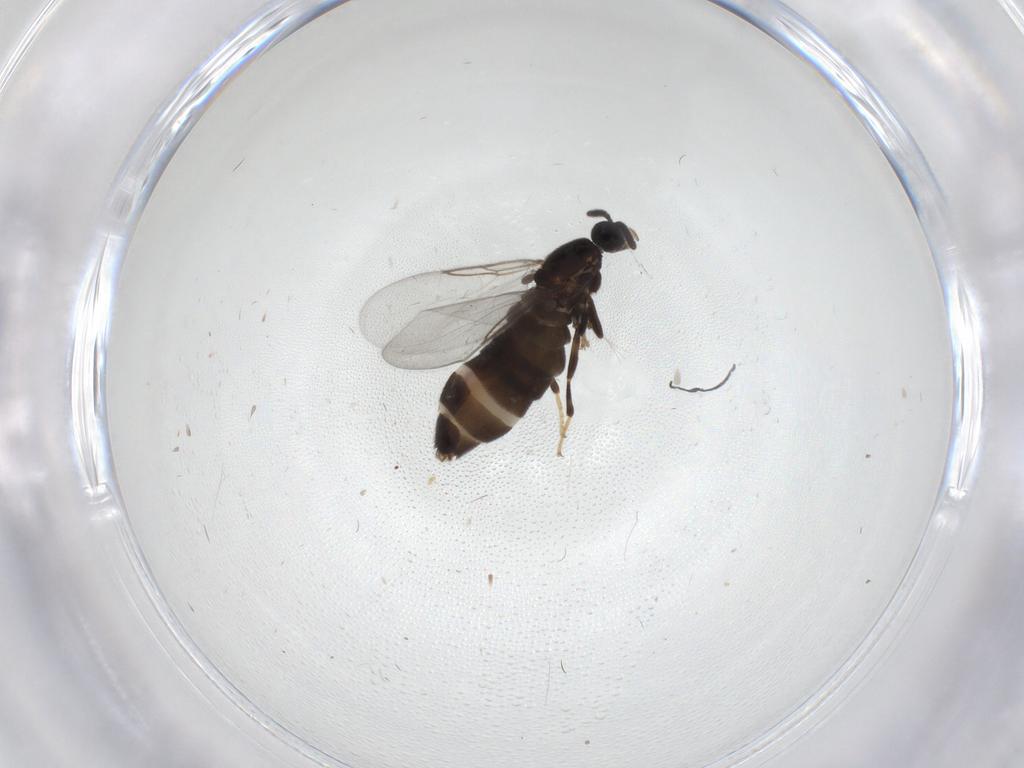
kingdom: Animalia
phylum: Arthropoda
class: Insecta
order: Diptera
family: Scatopsidae
